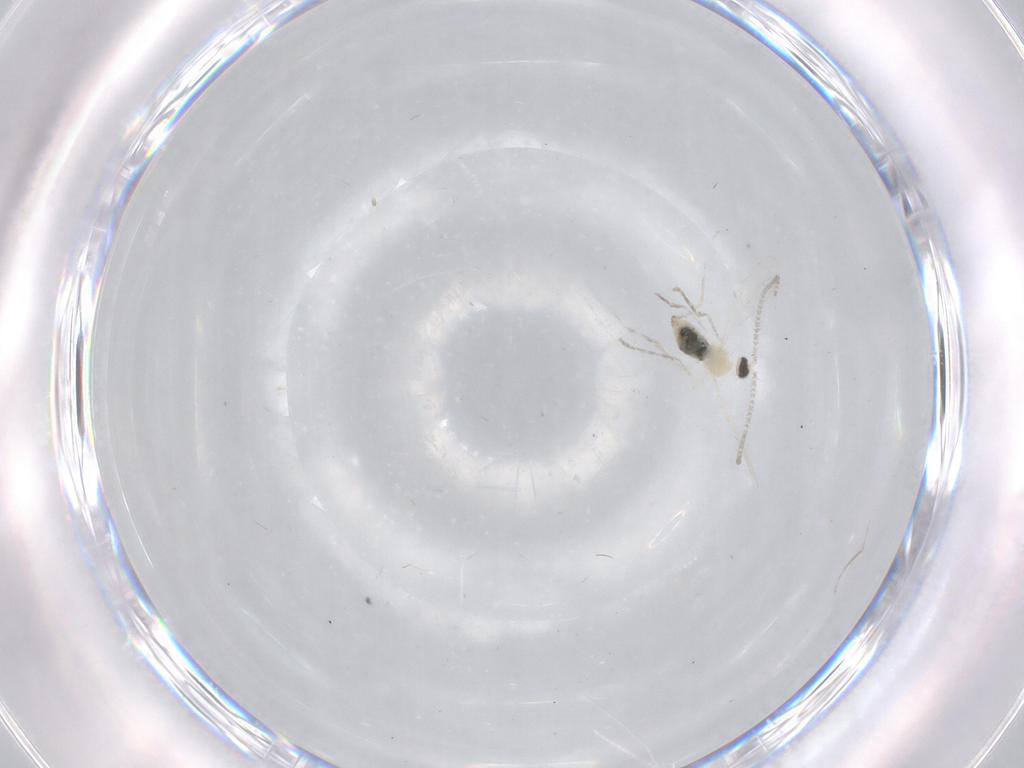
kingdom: Animalia
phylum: Arthropoda
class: Insecta
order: Diptera
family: Cecidomyiidae
